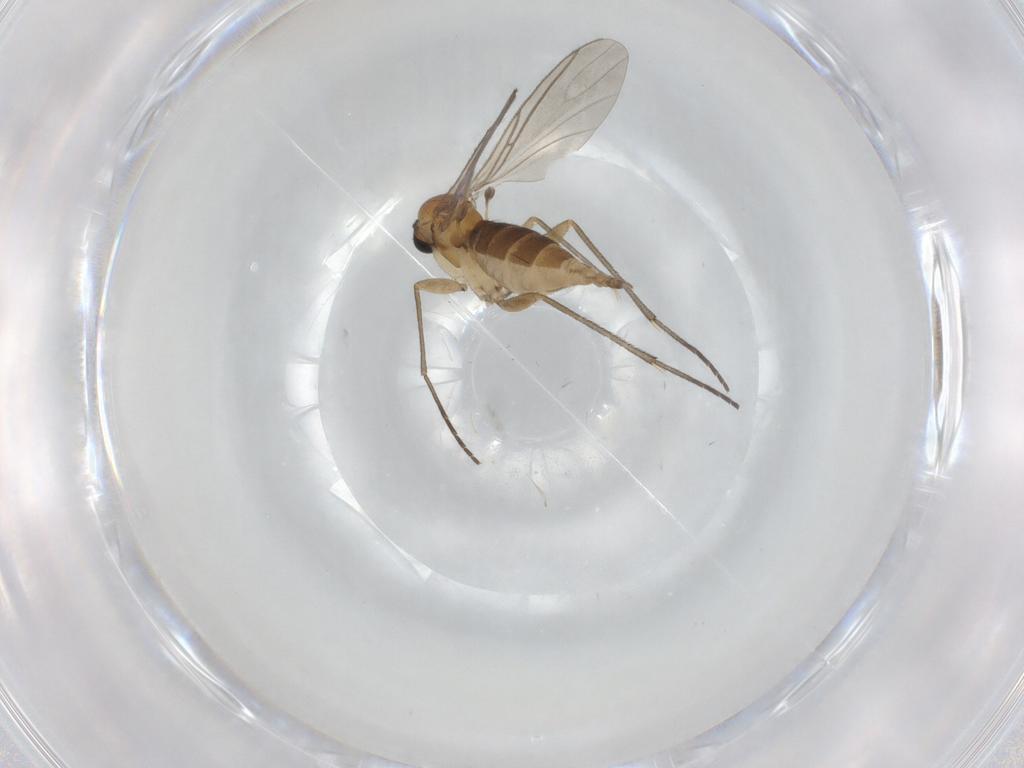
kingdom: Animalia
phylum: Arthropoda
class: Insecta
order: Diptera
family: Sciaridae
